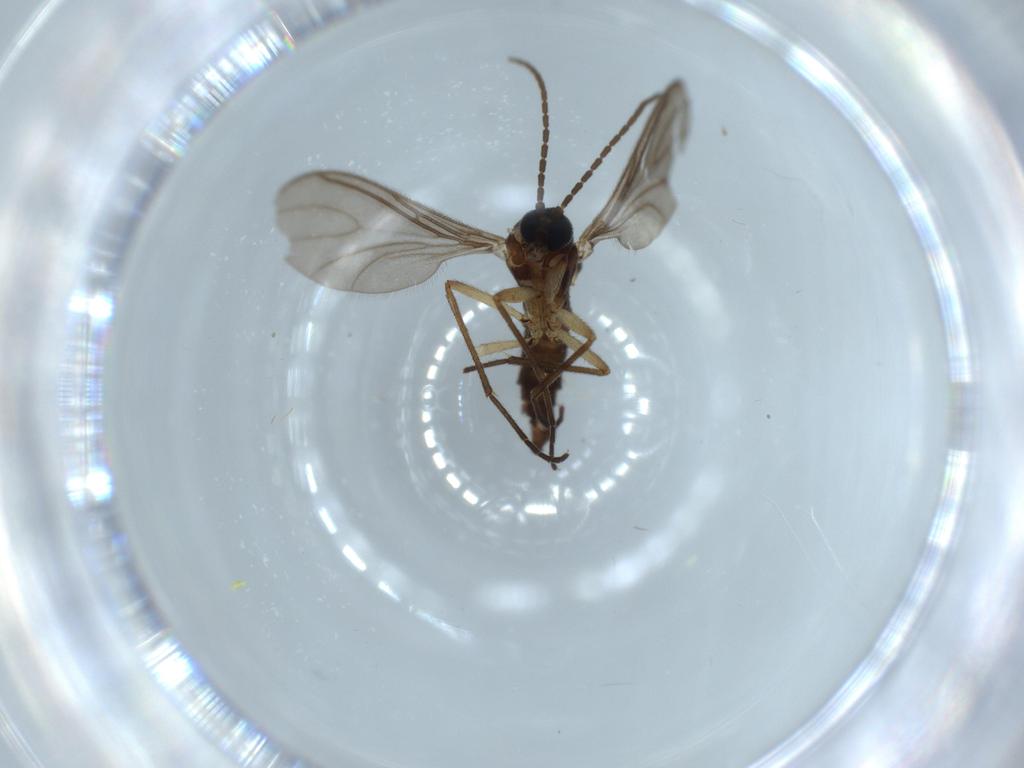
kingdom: Animalia
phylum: Arthropoda
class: Insecta
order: Diptera
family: Sciaridae
